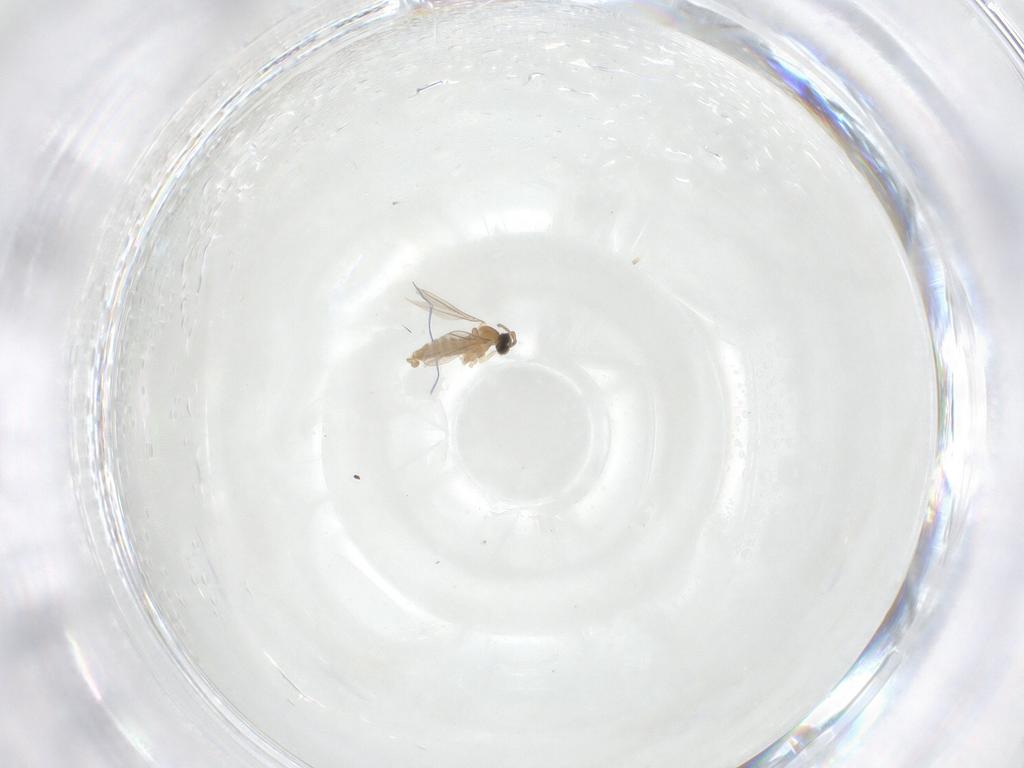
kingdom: Animalia
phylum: Arthropoda
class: Insecta
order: Diptera
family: Cecidomyiidae
